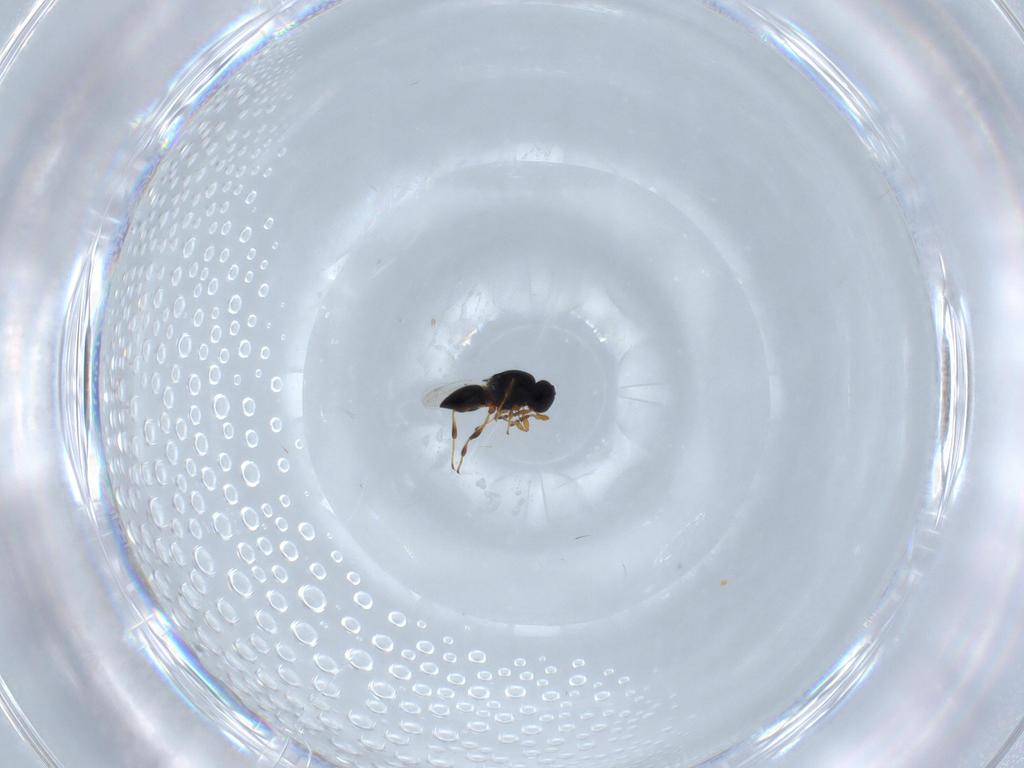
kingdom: Animalia
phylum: Arthropoda
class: Insecta
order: Hymenoptera
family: Platygastridae
